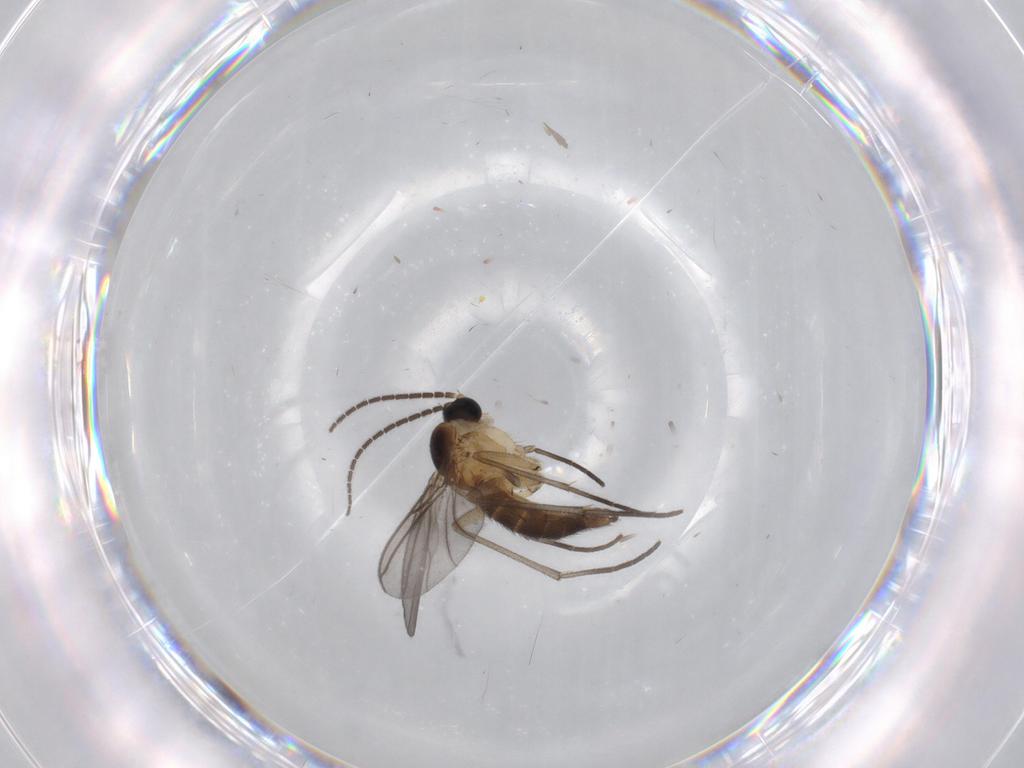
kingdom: Animalia
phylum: Arthropoda
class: Insecta
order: Diptera
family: Sciaridae
